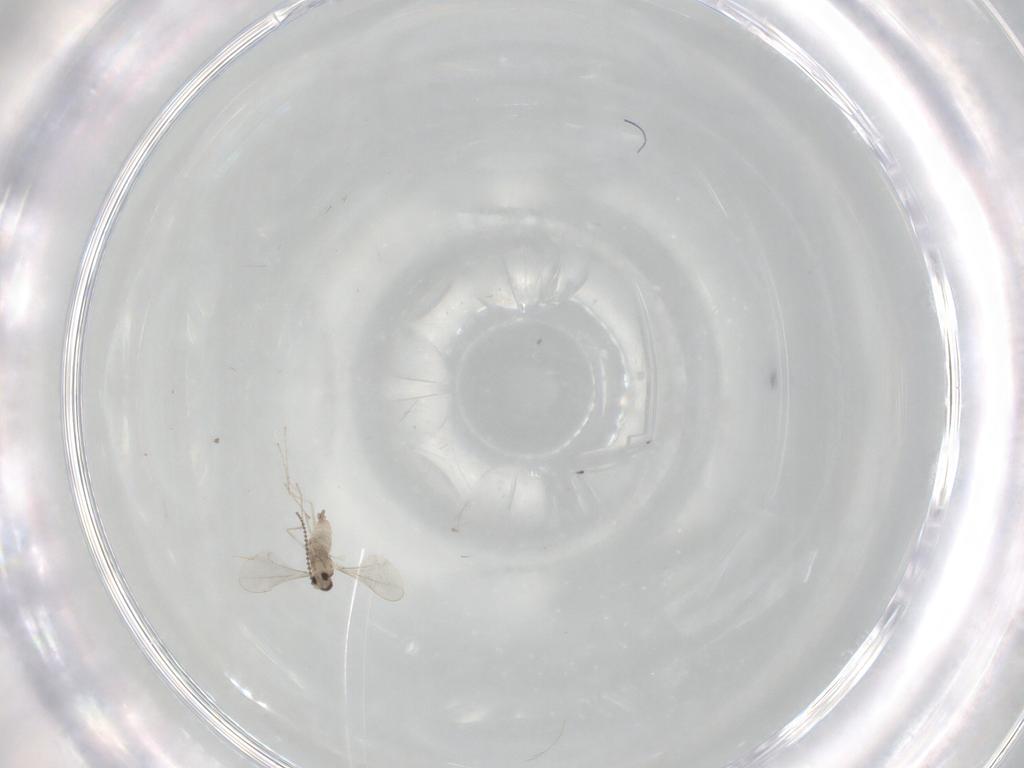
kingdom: Animalia
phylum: Arthropoda
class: Insecta
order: Diptera
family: Cecidomyiidae
